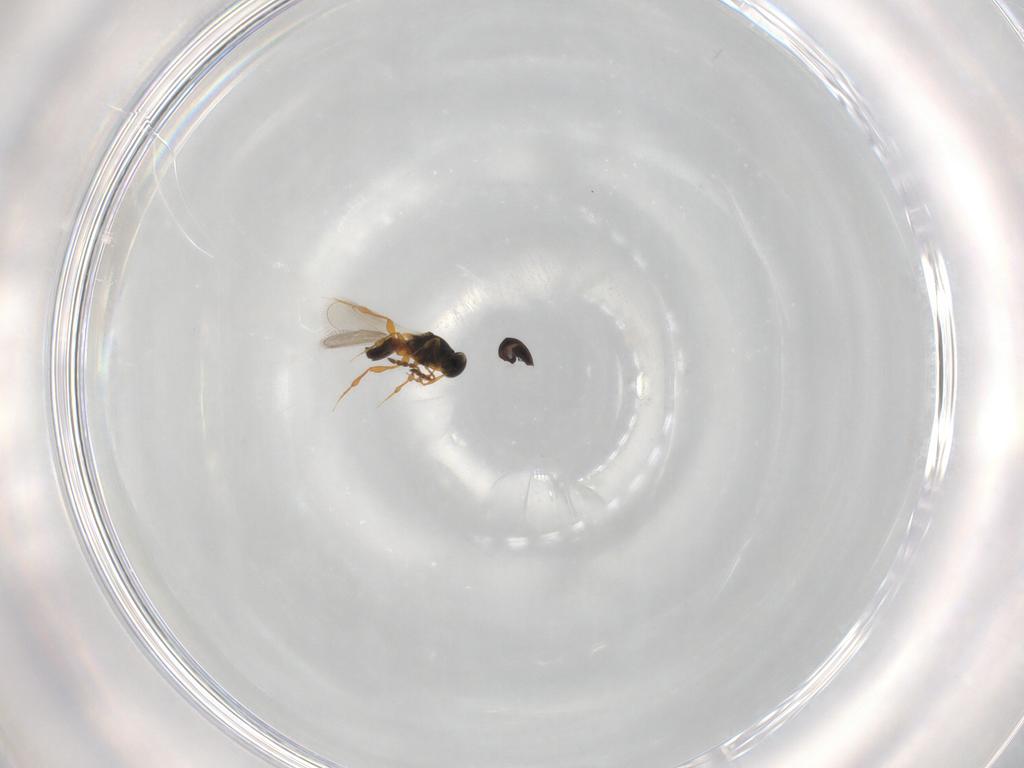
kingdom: Animalia
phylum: Arthropoda
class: Insecta
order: Hymenoptera
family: Platygastridae
